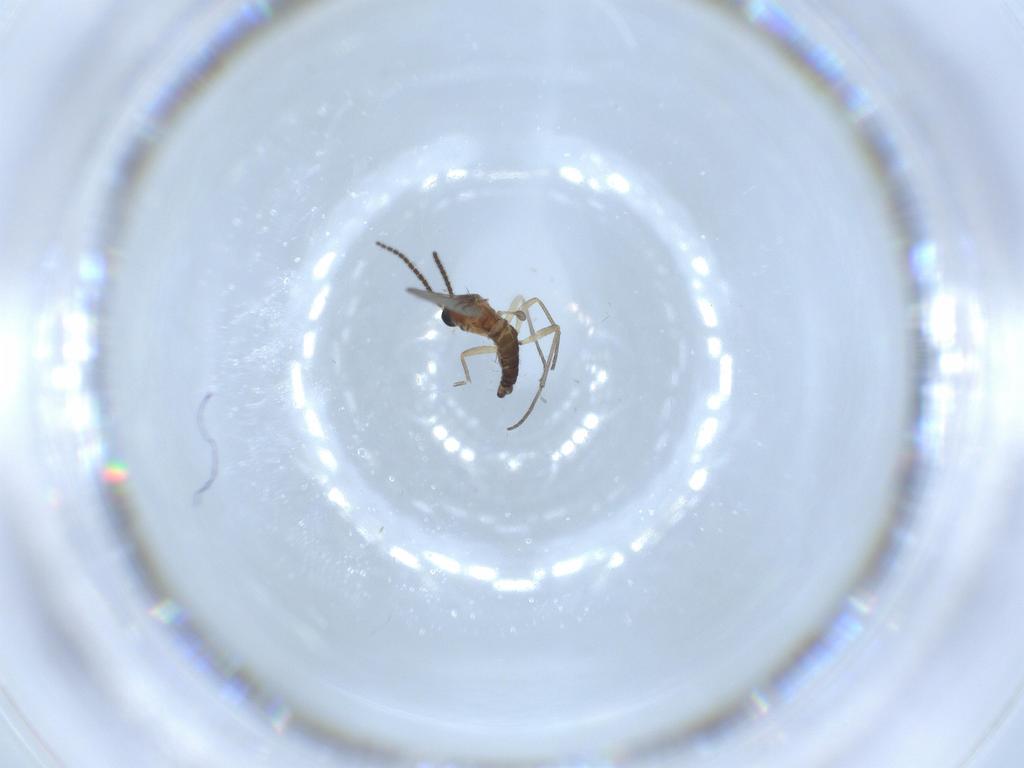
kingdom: Animalia
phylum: Arthropoda
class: Insecta
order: Diptera
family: Sciaridae
